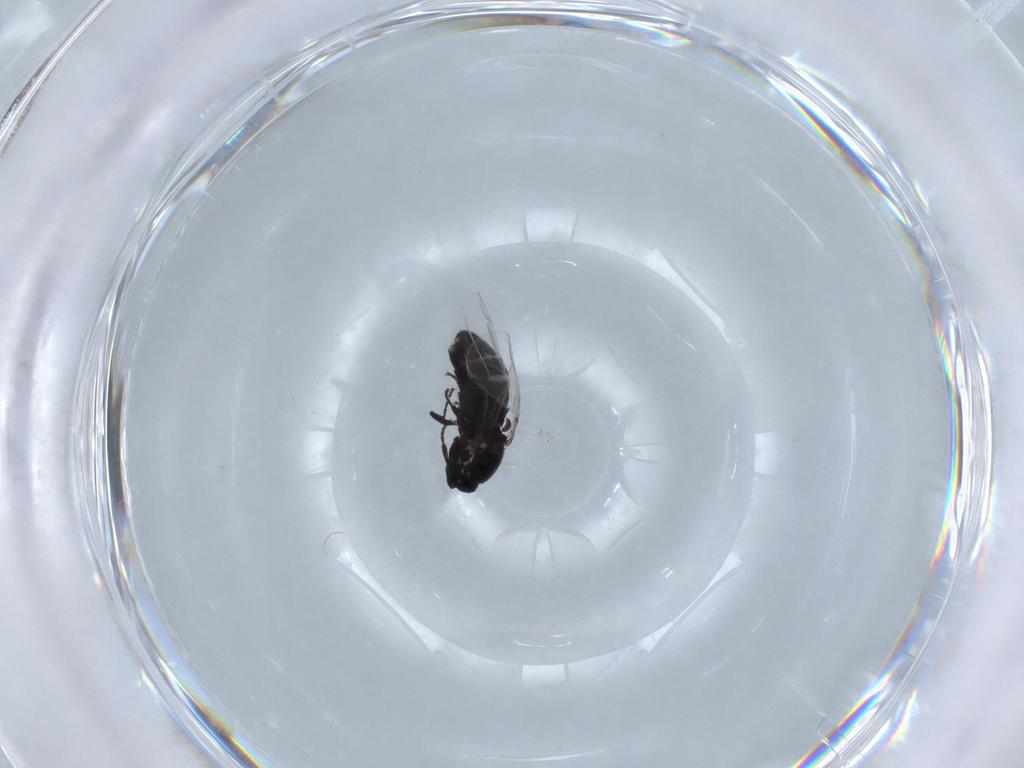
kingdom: Animalia
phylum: Arthropoda
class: Insecta
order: Diptera
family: Scatopsidae
